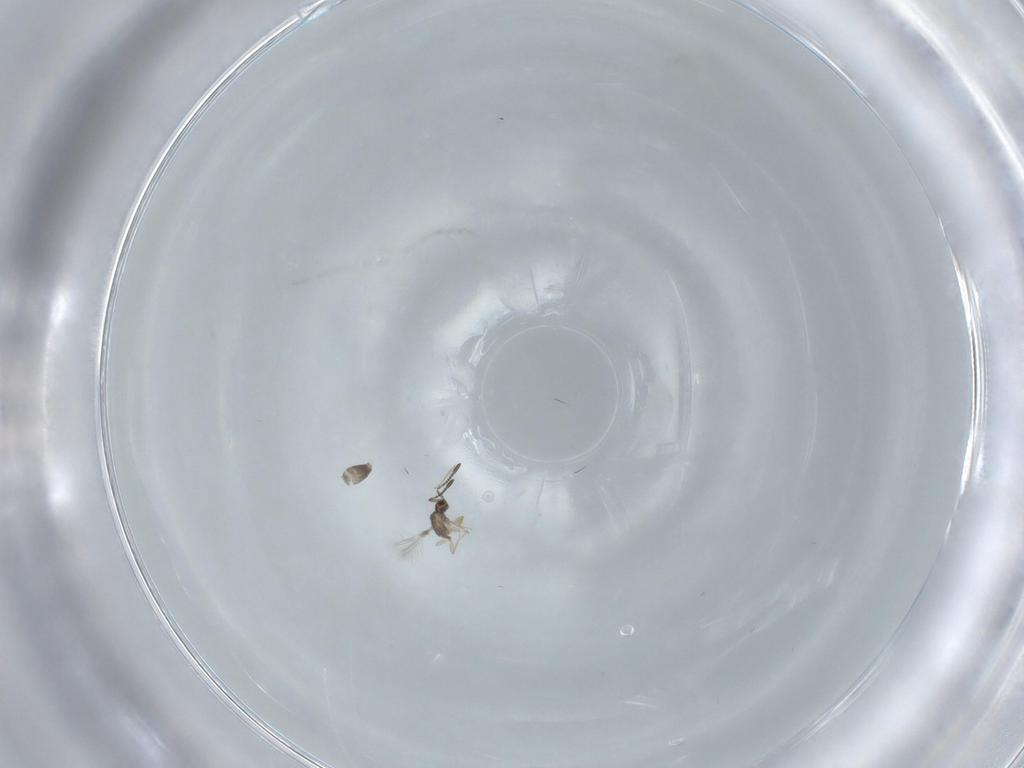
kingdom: Animalia
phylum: Arthropoda
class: Insecta
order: Hymenoptera
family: Mymaridae
